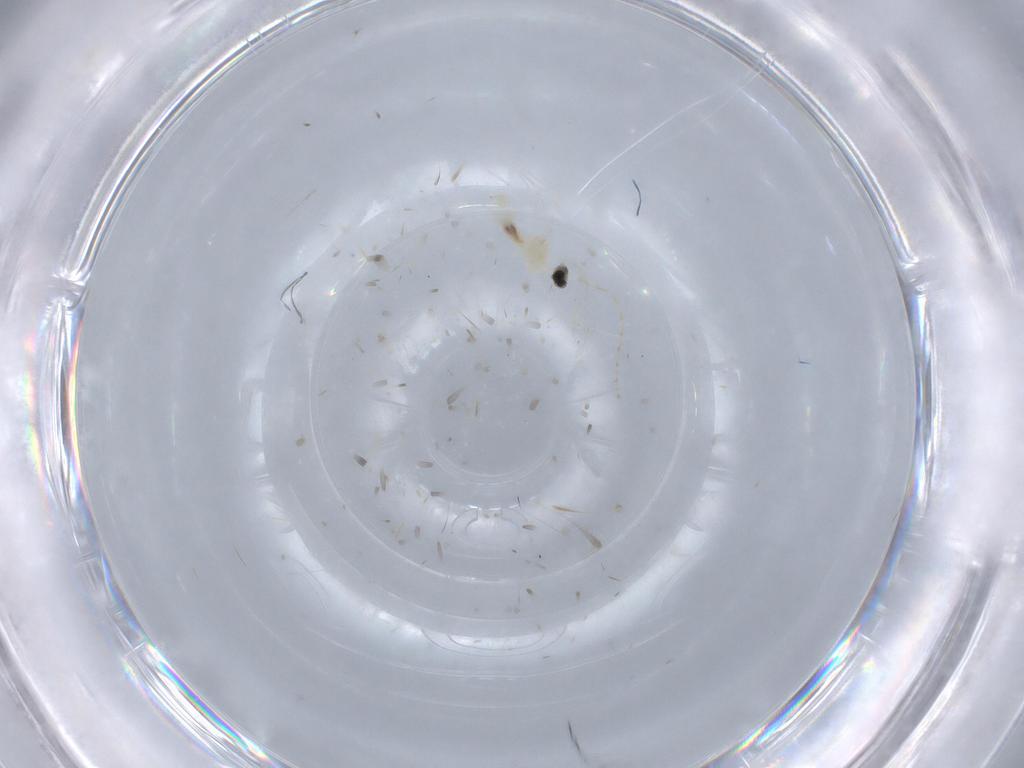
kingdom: Animalia
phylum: Arthropoda
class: Insecta
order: Diptera
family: Cecidomyiidae
